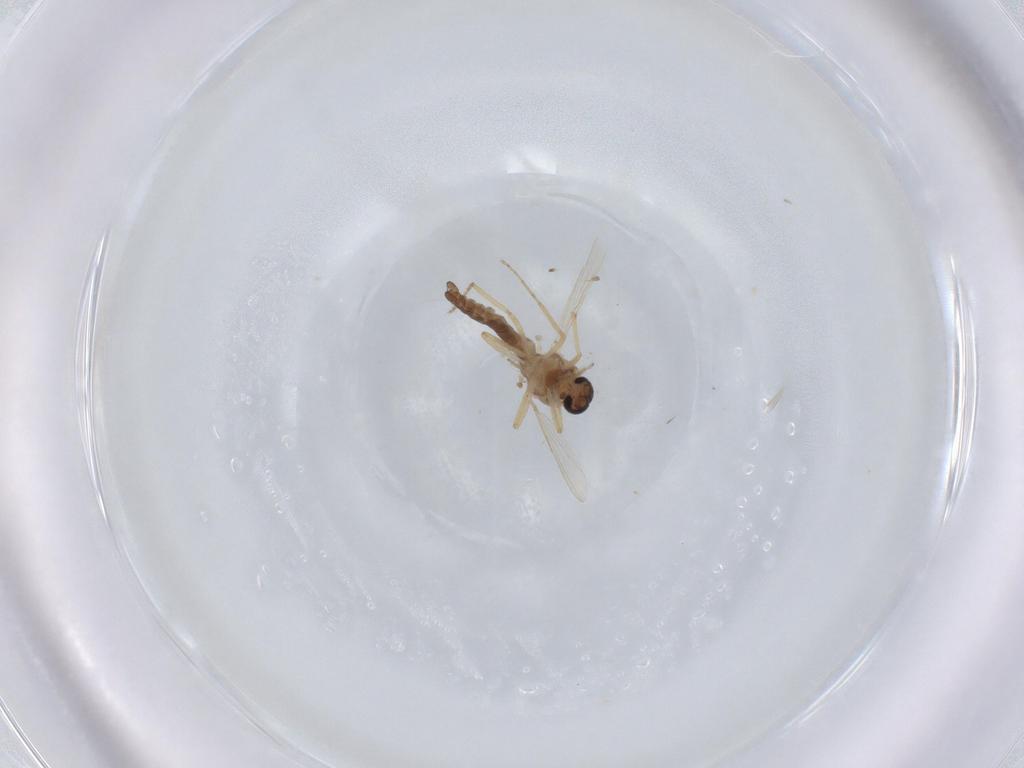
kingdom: Animalia
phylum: Arthropoda
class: Insecta
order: Diptera
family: Ceratopogonidae
